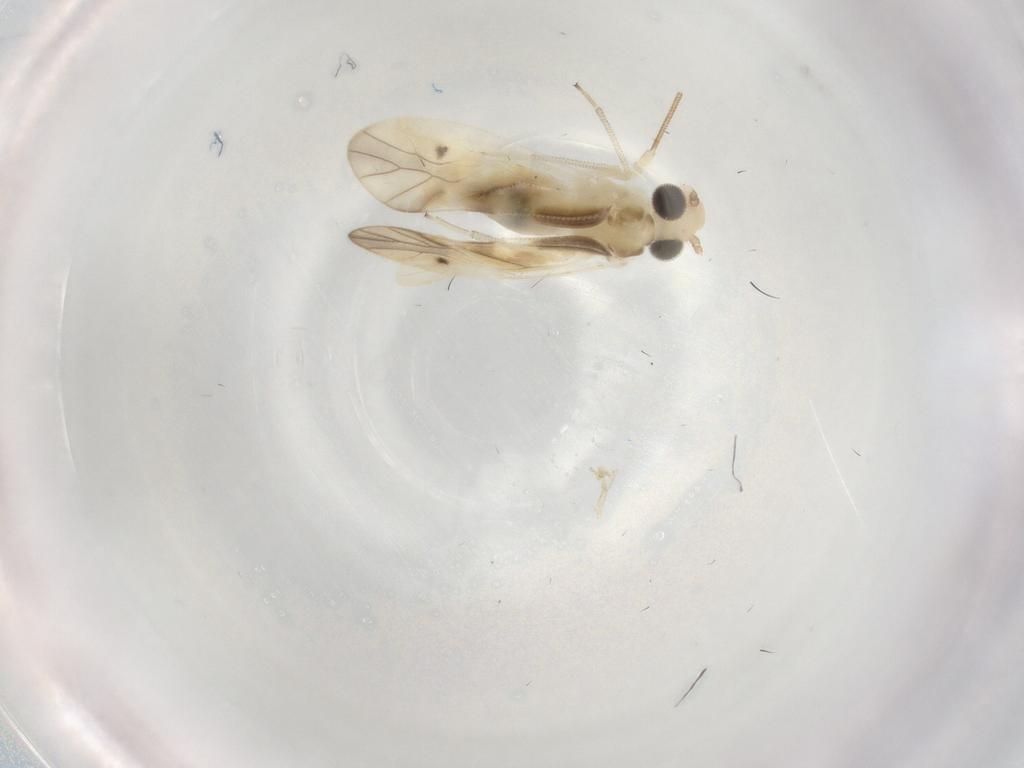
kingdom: Animalia
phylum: Arthropoda
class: Insecta
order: Psocodea
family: Caeciliusidae
